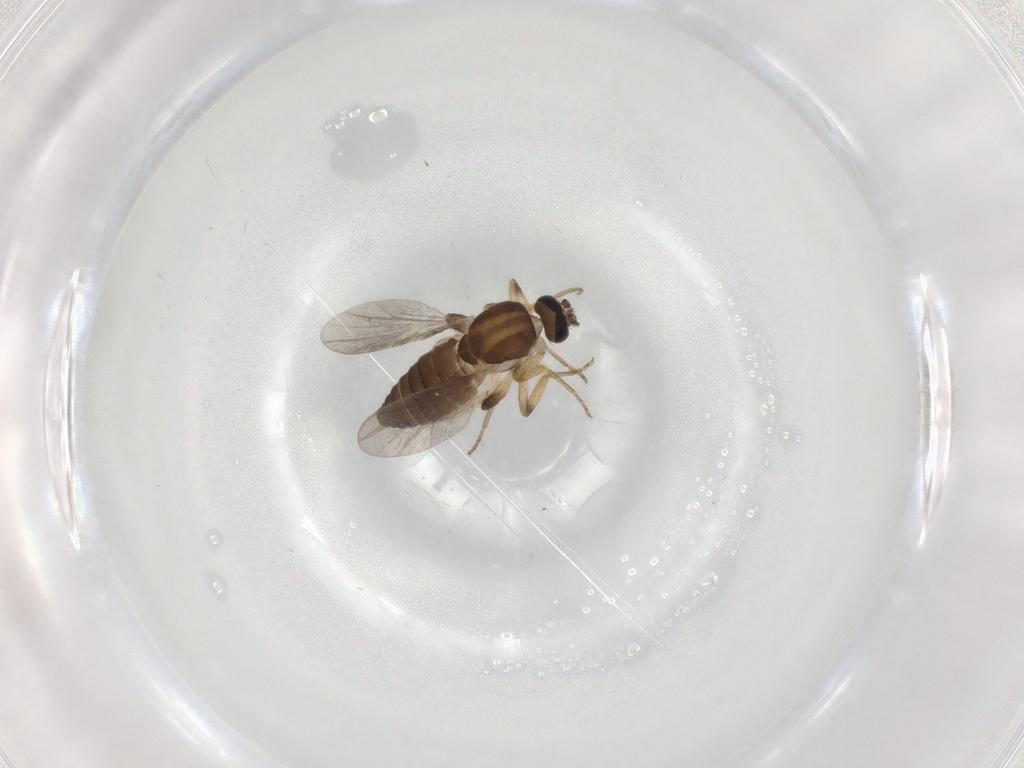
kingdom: Animalia
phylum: Arthropoda
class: Insecta
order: Diptera
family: Ceratopogonidae
